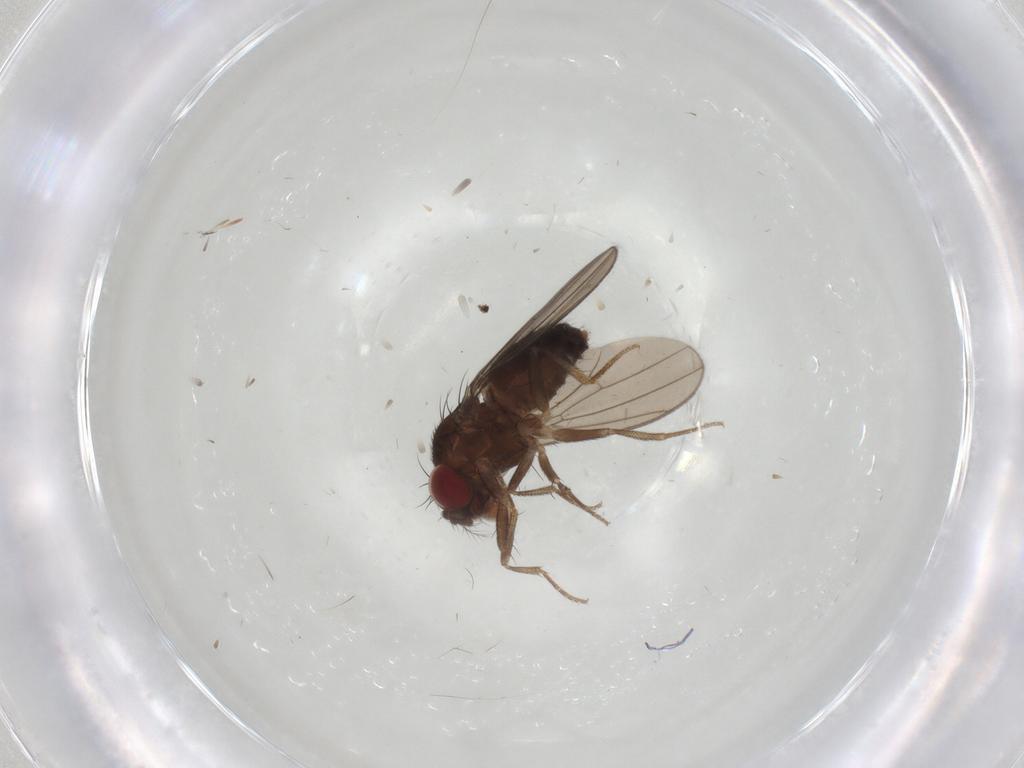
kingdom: Animalia
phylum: Arthropoda
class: Insecta
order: Diptera
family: Drosophilidae
